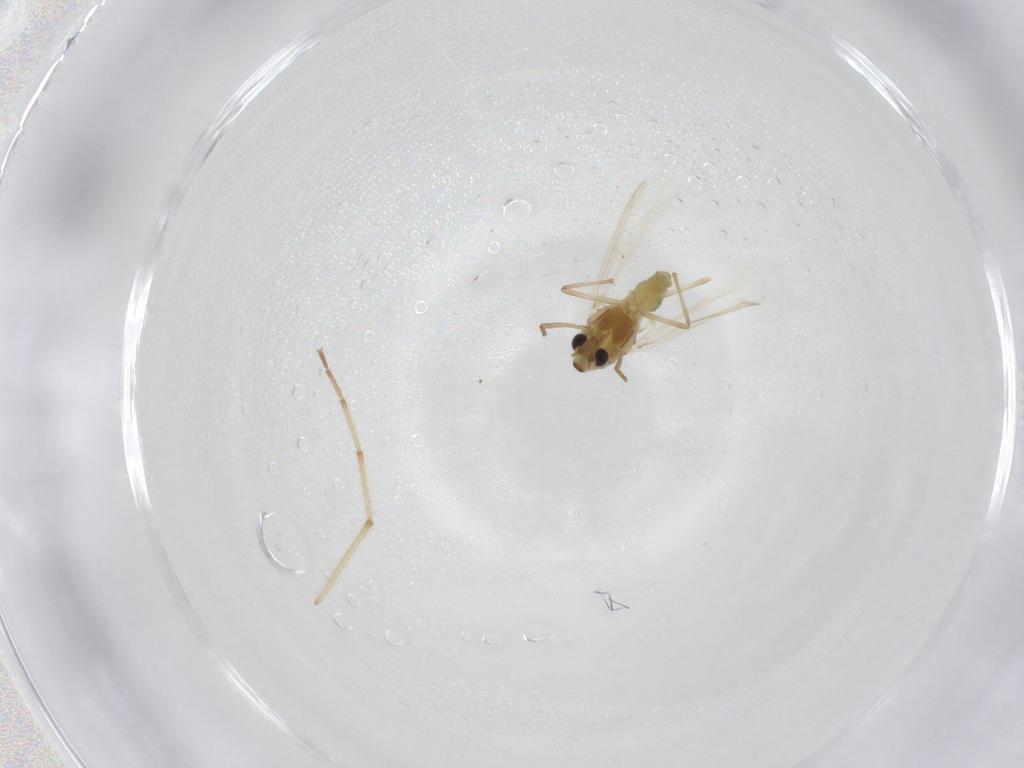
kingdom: Animalia
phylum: Arthropoda
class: Insecta
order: Diptera
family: Chironomidae
